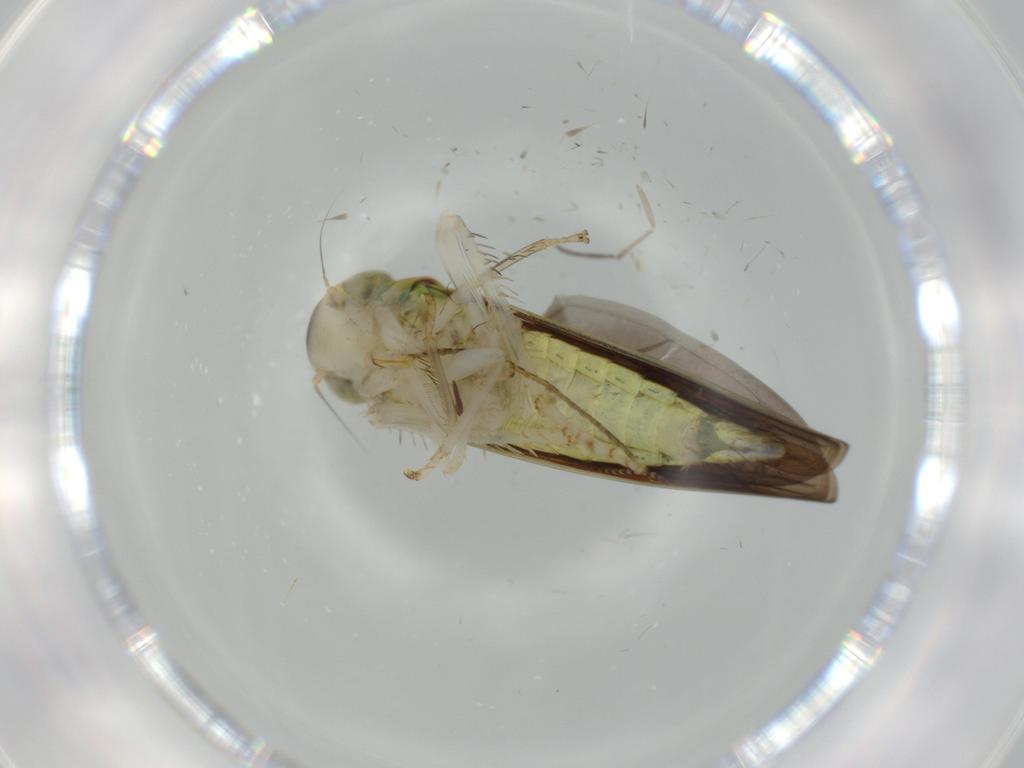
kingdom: Animalia
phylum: Arthropoda
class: Insecta
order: Hemiptera
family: Cicadellidae
